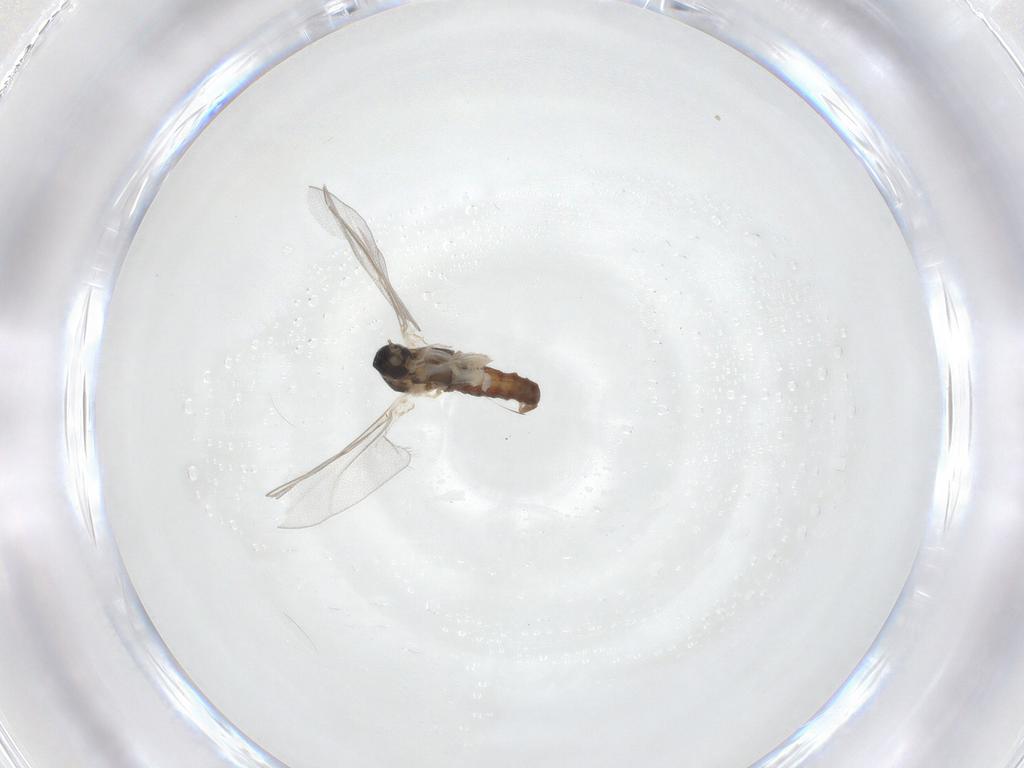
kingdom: Animalia
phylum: Arthropoda
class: Insecta
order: Diptera
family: Cecidomyiidae
